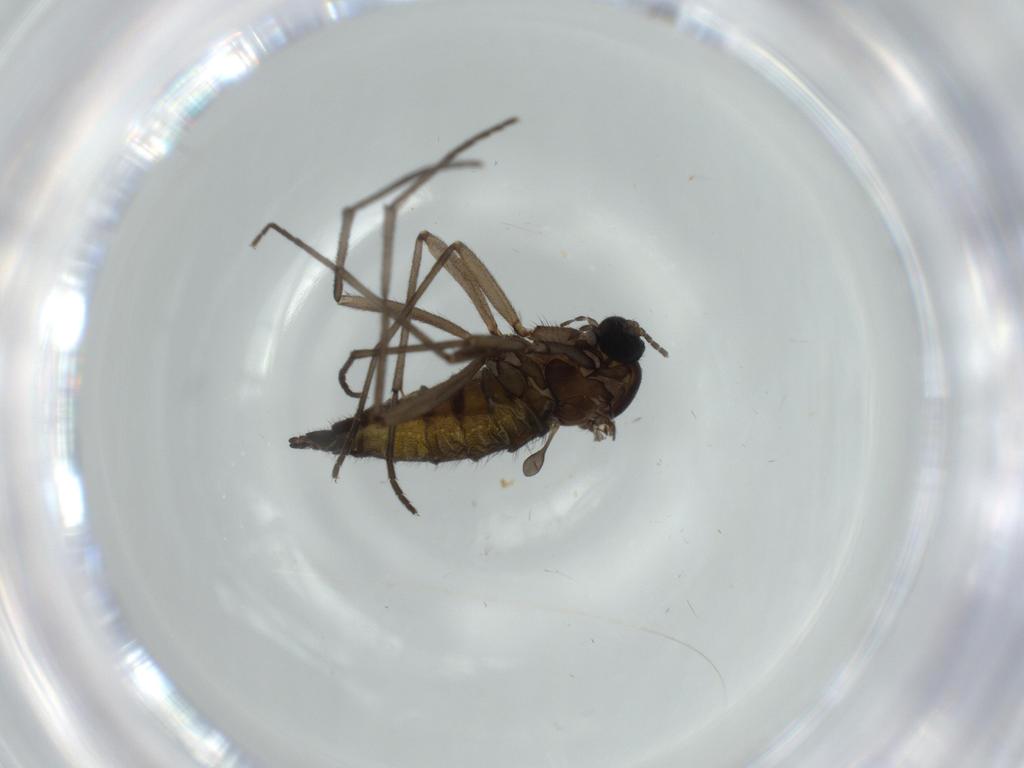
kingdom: Animalia
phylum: Arthropoda
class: Insecta
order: Diptera
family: Sciaridae
